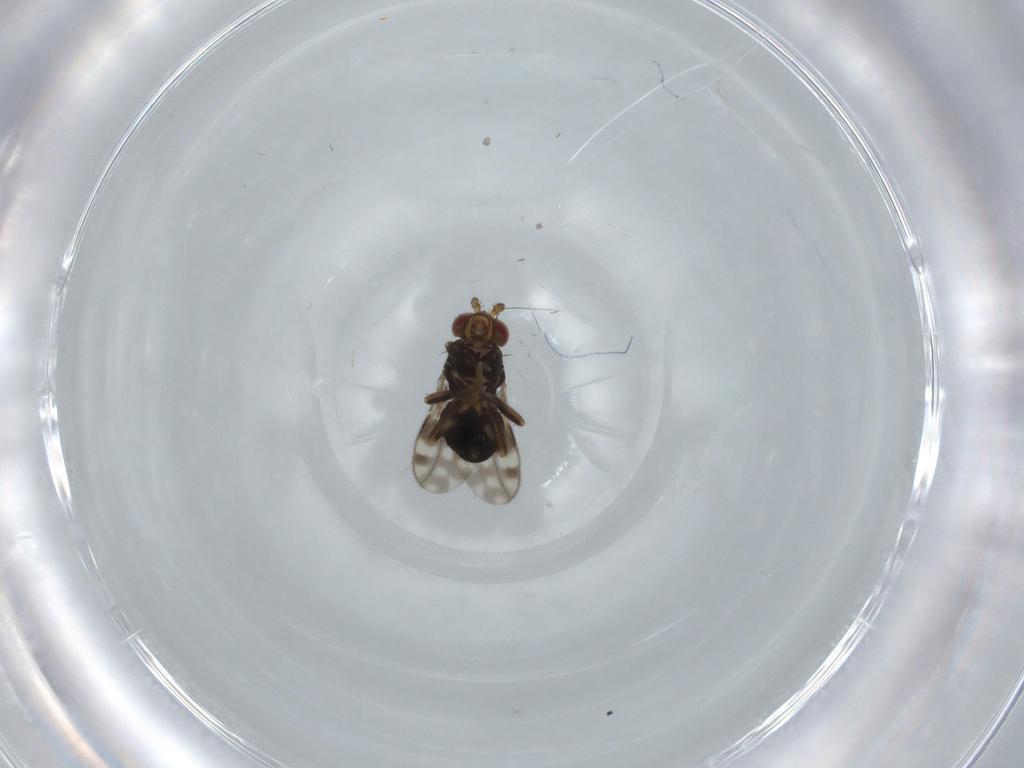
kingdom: Animalia
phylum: Arthropoda
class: Insecta
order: Diptera
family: Sphaeroceridae
